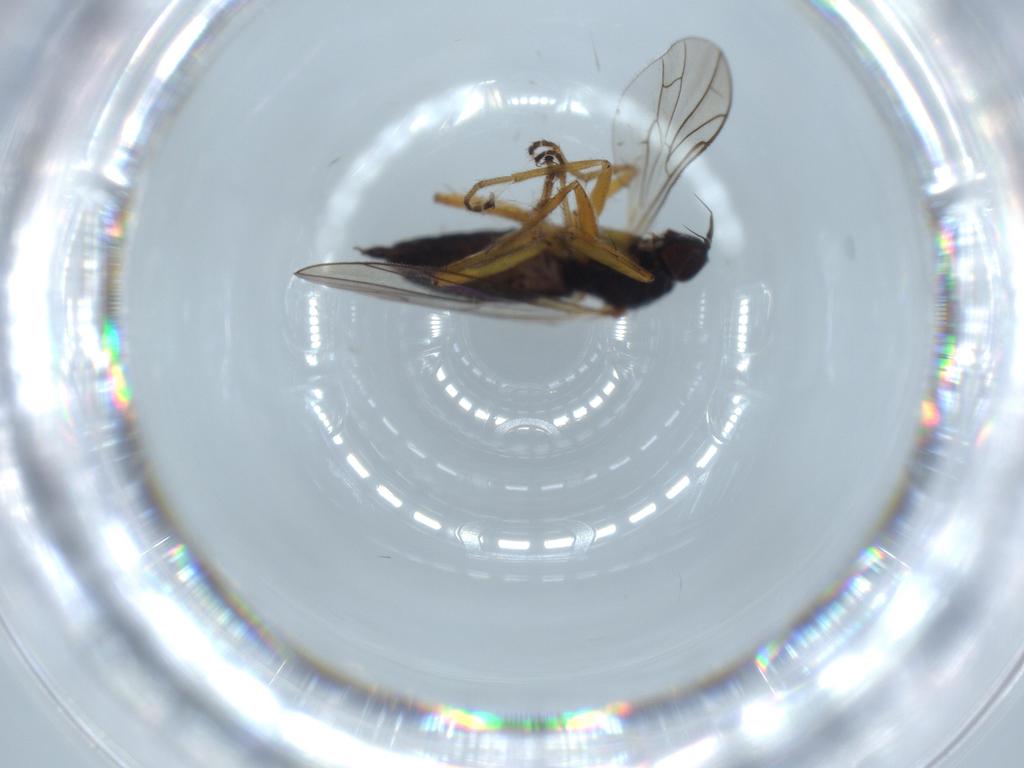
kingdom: Animalia
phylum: Arthropoda
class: Insecta
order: Diptera
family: Hybotidae
